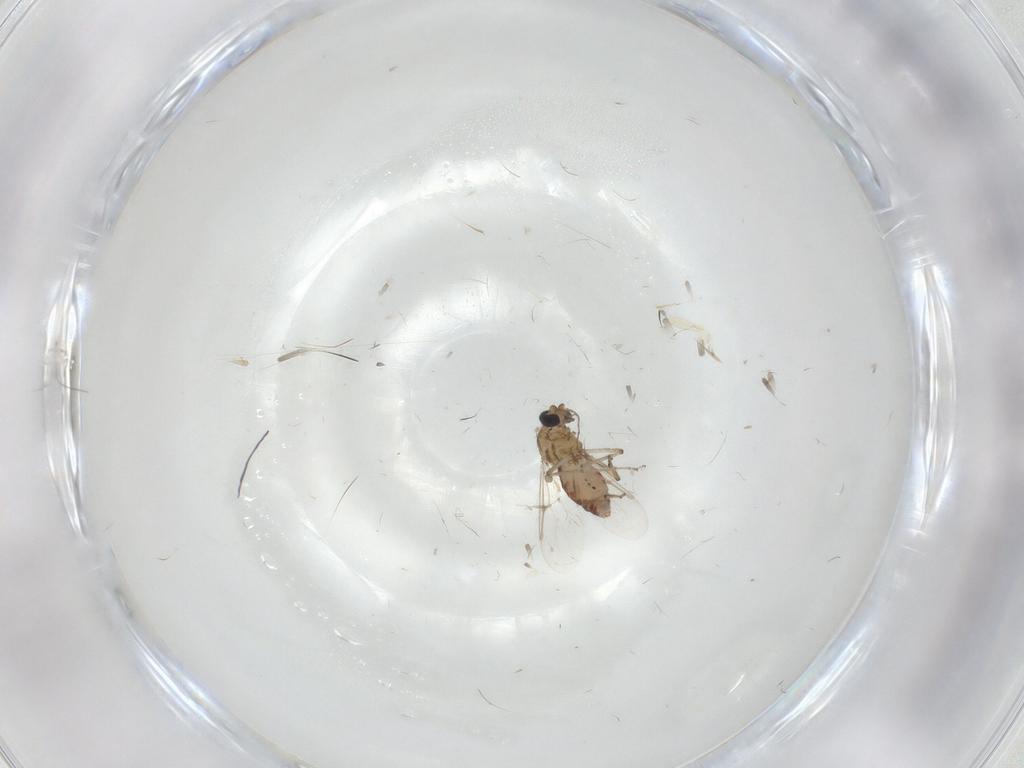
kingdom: Animalia
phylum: Arthropoda
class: Insecta
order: Diptera
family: Ceratopogonidae
